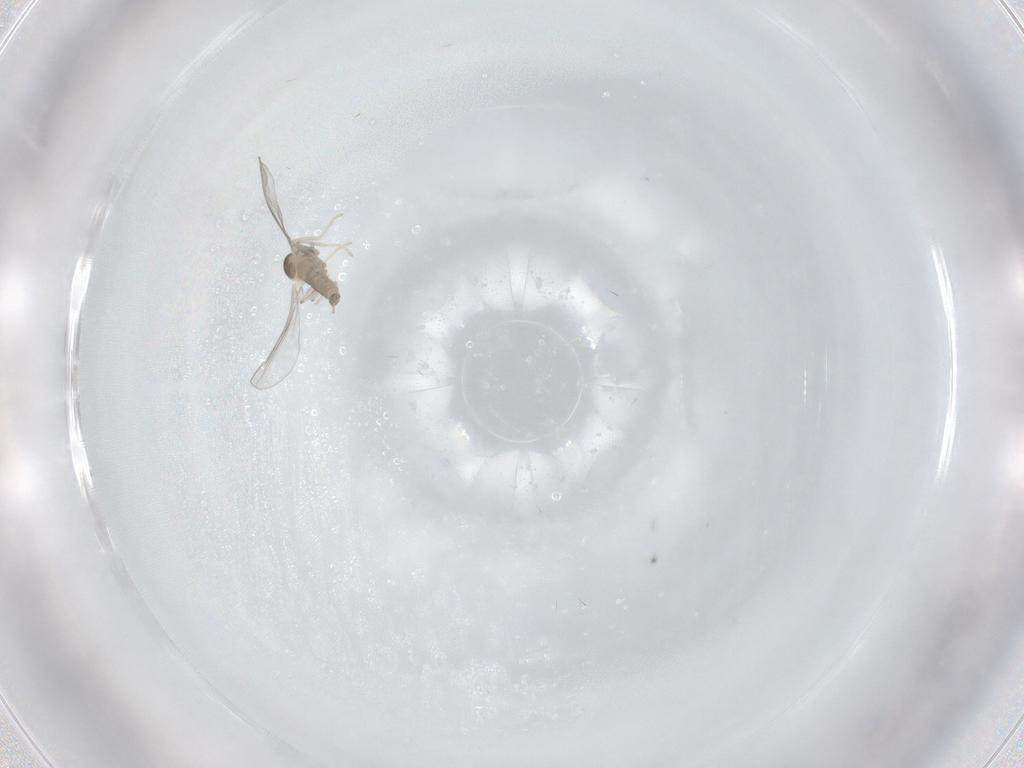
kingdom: Animalia
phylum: Arthropoda
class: Insecta
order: Diptera
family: Cecidomyiidae
